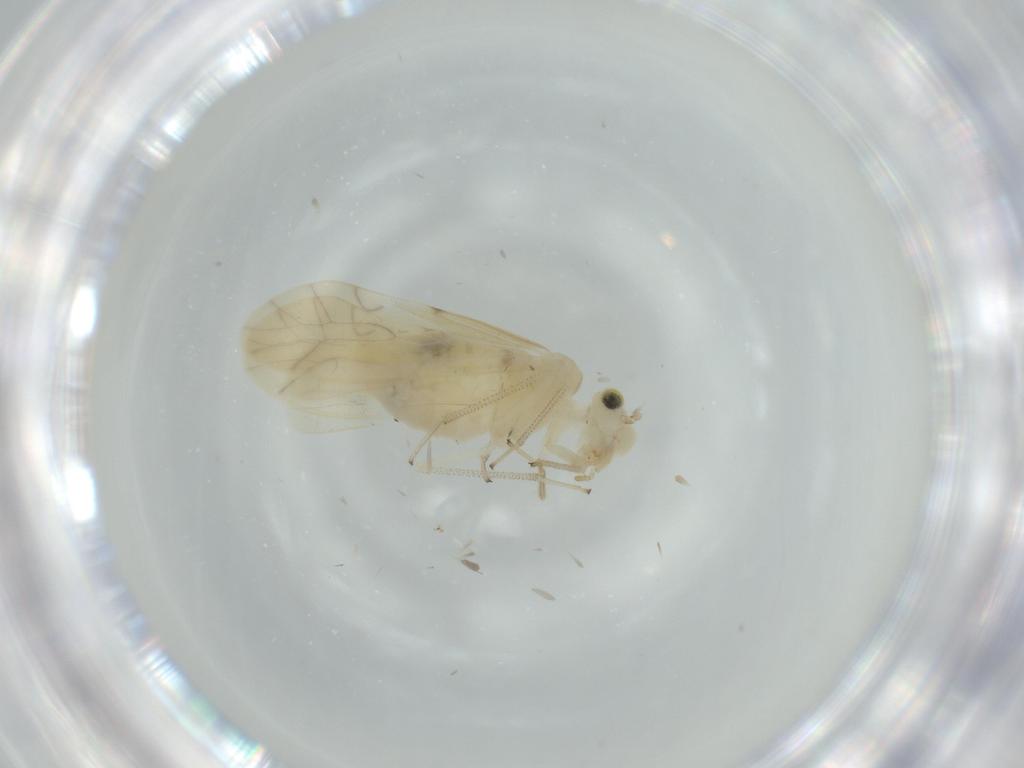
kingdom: Animalia
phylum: Arthropoda
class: Insecta
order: Psocodea
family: Caeciliusidae
